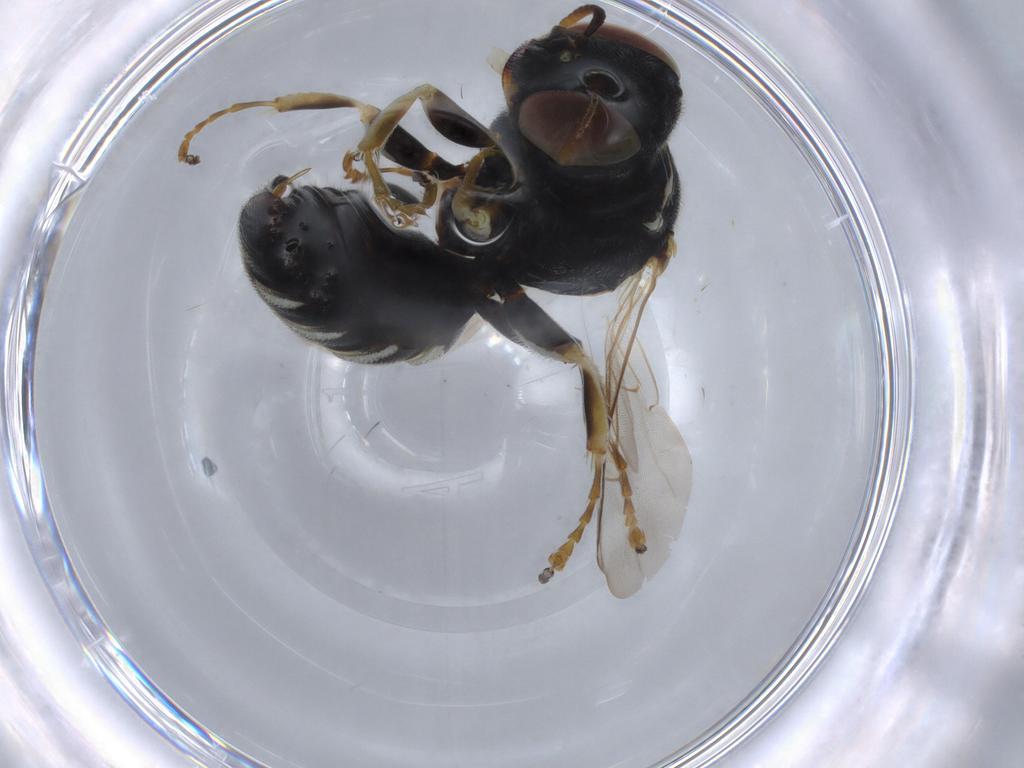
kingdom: Animalia
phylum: Arthropoda
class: Insecta
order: Hymenoptera
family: Crabronidae
